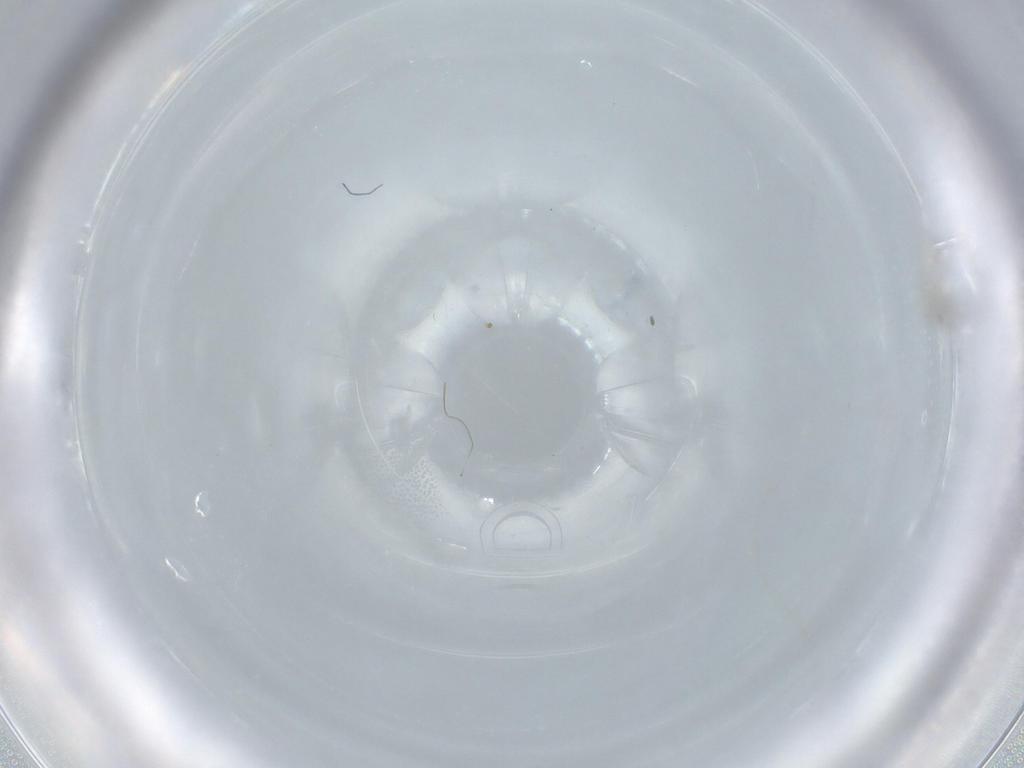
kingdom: Animalia
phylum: Arthropoda
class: Insecta
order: Diptera
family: Cecidomyiidae
